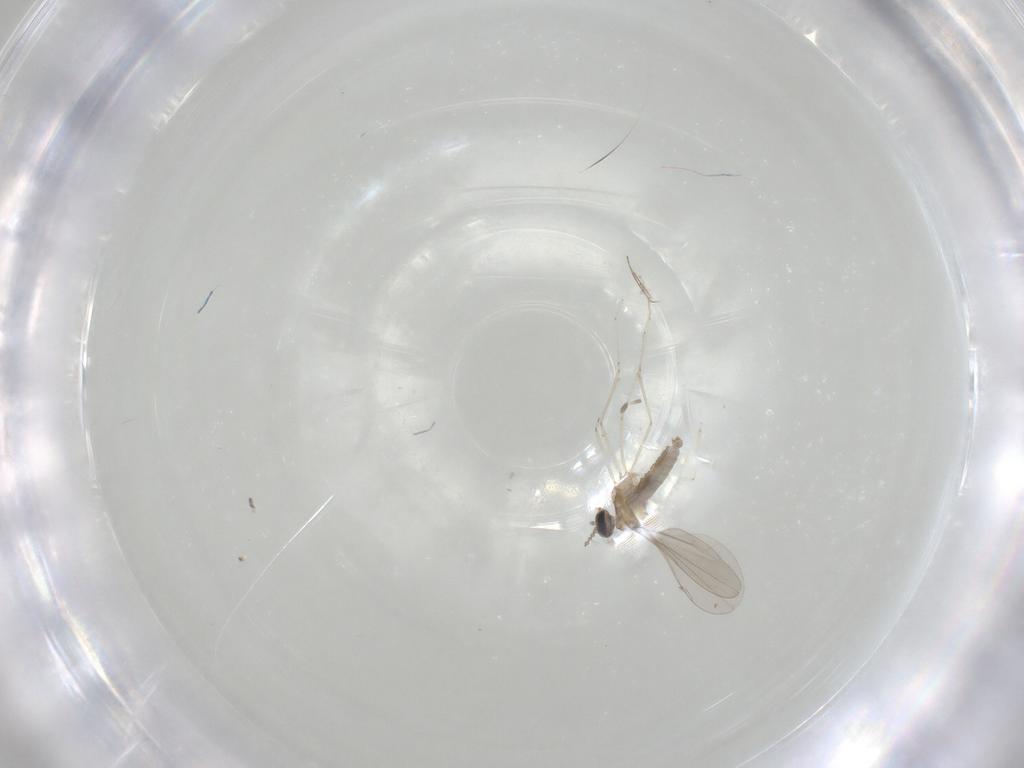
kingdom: Animalia
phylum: Arthropoda
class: Insecta
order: Diptera
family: Cecidomyiidae
